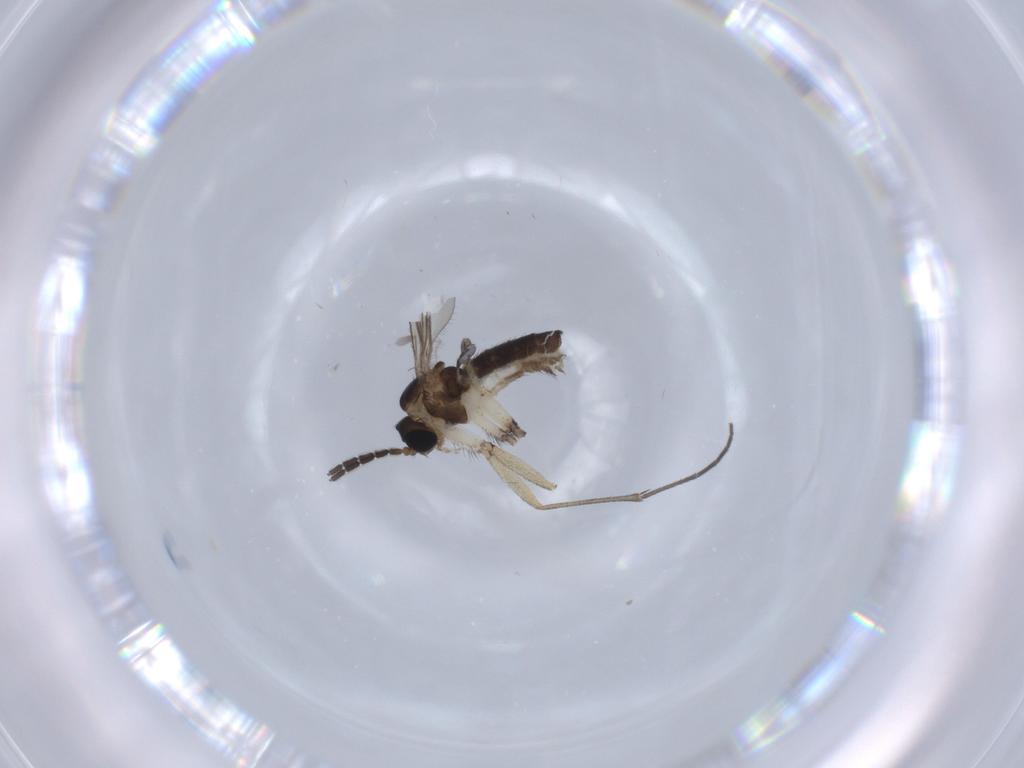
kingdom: Animalia
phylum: Arthropoda
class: Insecta
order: Diptera
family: Sciaridae
